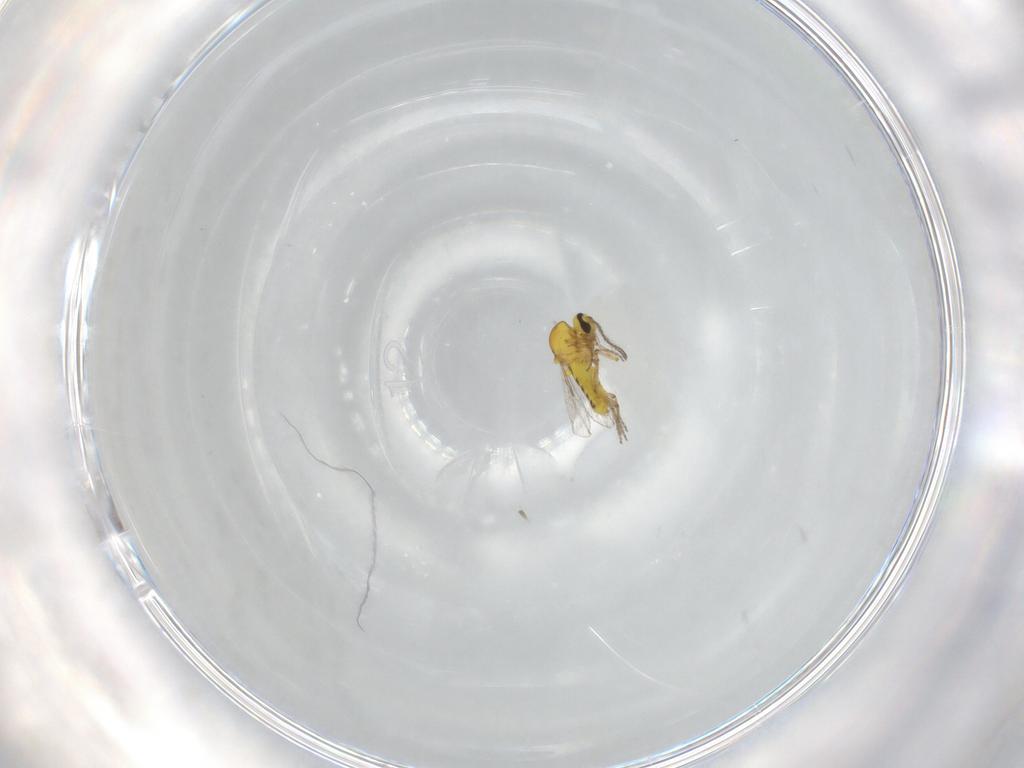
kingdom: Animalia
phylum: Arthropoda
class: Insecta
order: Diptera
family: Ceratopogonidae
